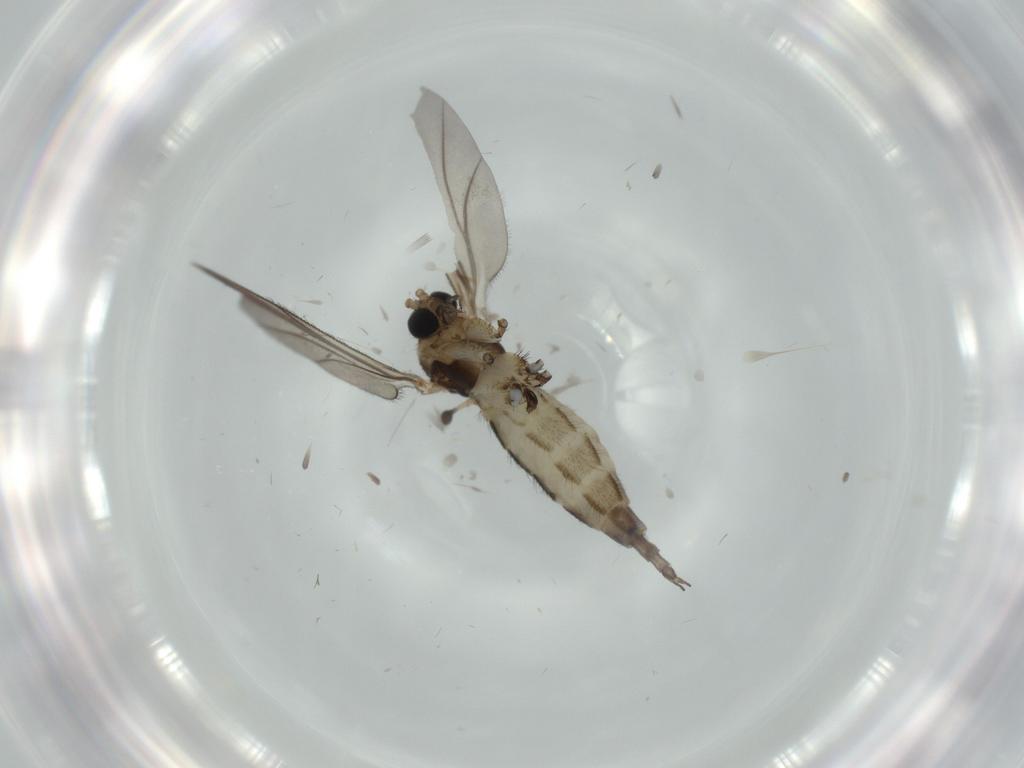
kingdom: Animalia
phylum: Arthropoda
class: Insecta
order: Diptera
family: Sciaridae
